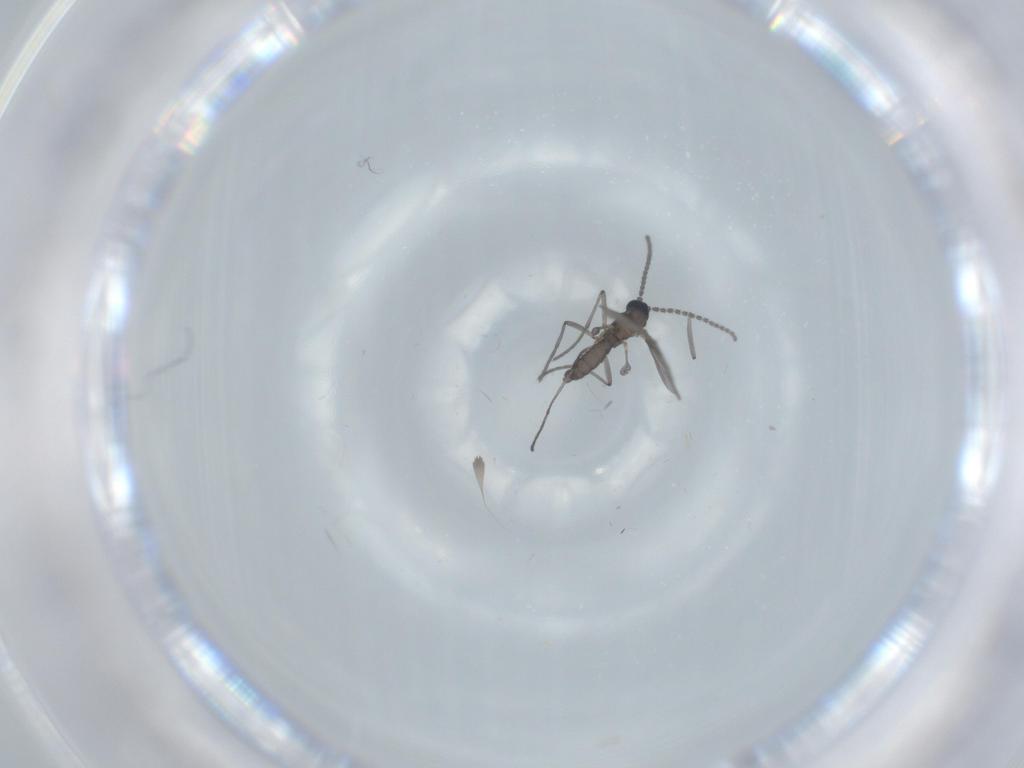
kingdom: Animalia
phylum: Arthropoda
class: Insecta
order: Diptera
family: Sciaridae
